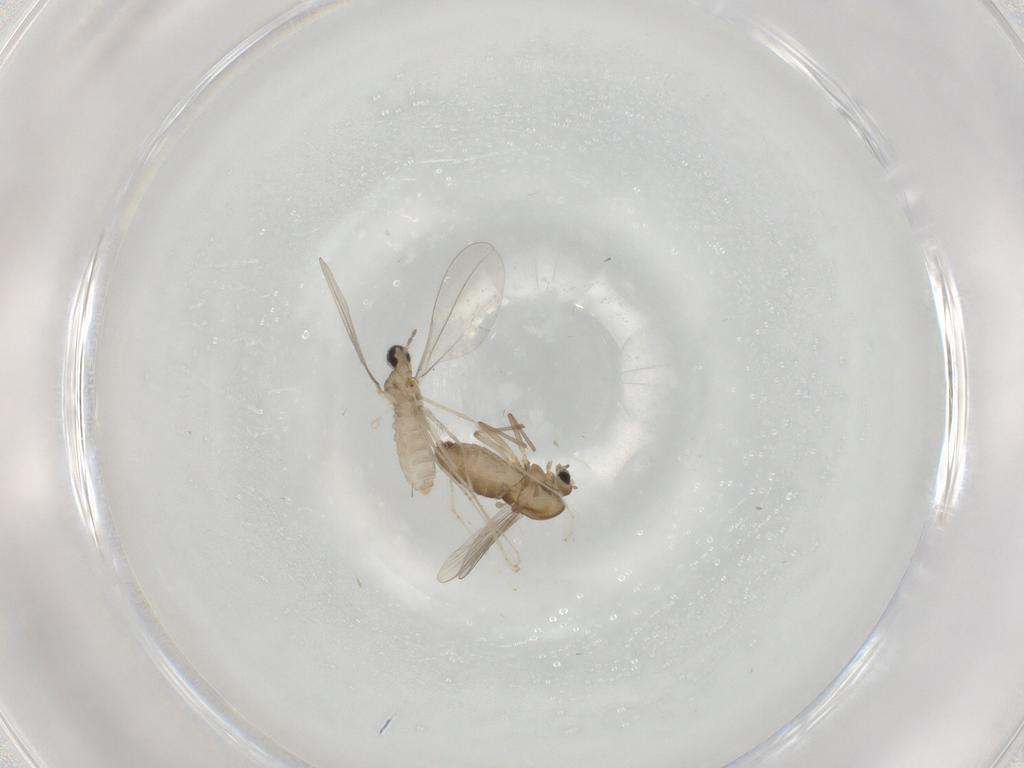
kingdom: Animalia
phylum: Arthropoda
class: Insecta
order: Diptera
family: Chironomidae
